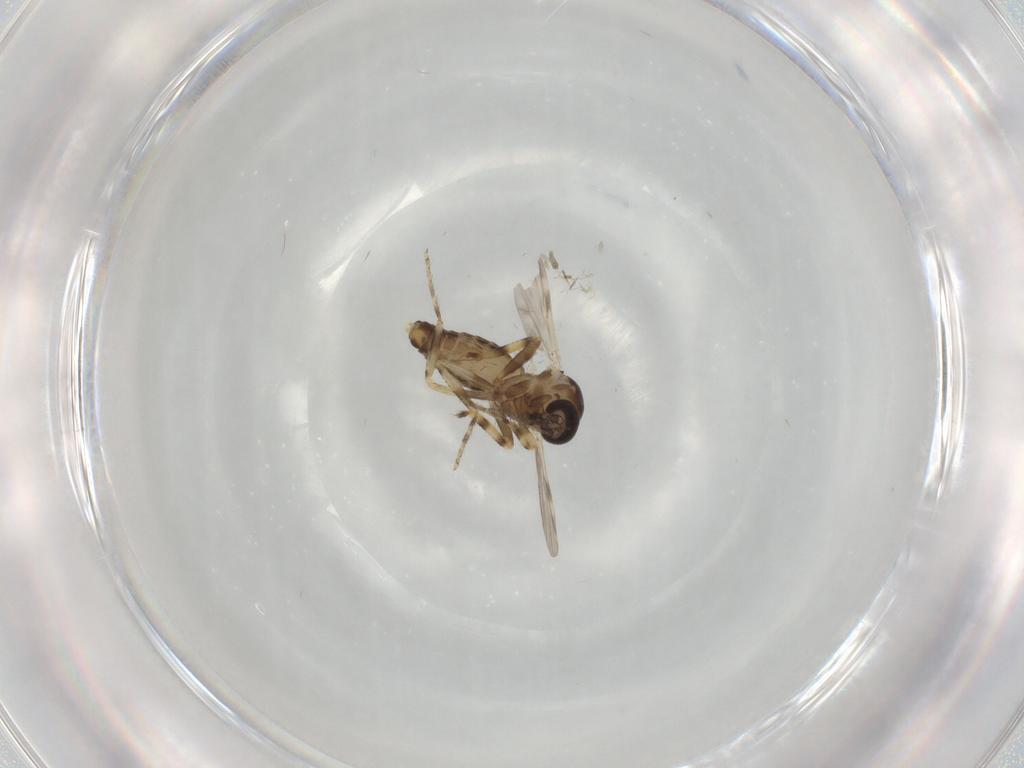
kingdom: Animalia
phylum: Arthropoda
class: Insecta
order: Diptera
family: Ceratopogonidae
